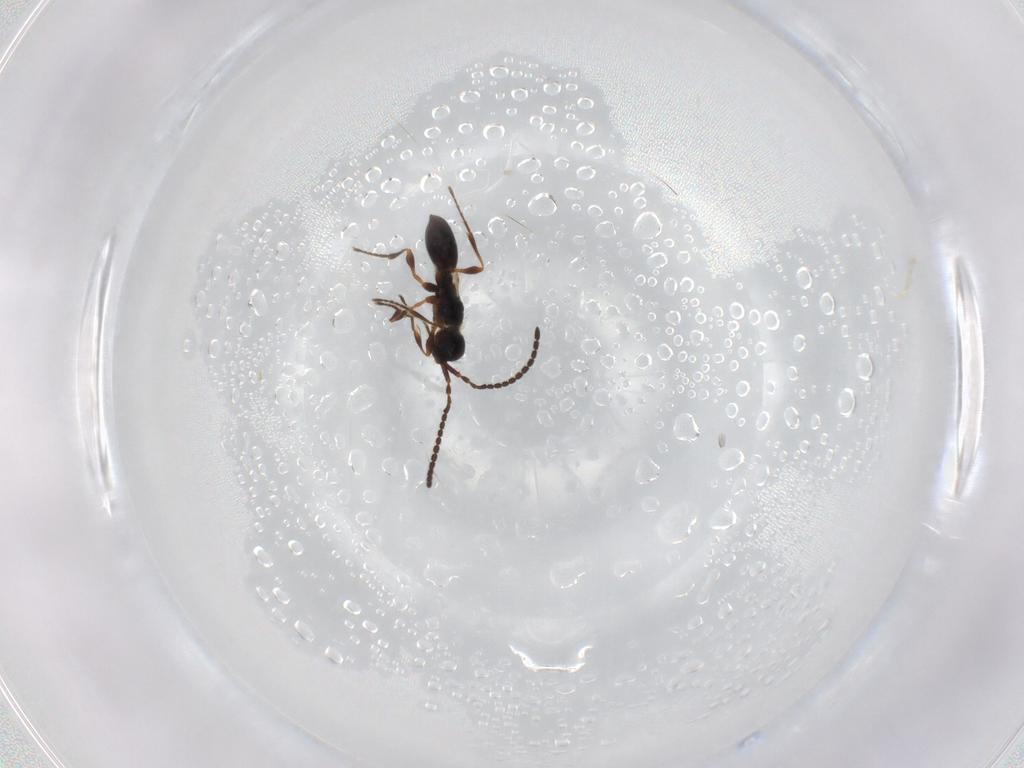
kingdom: Animalia
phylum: Arthropoda
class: Insecta
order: Hymenoptera
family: Diapriidae
